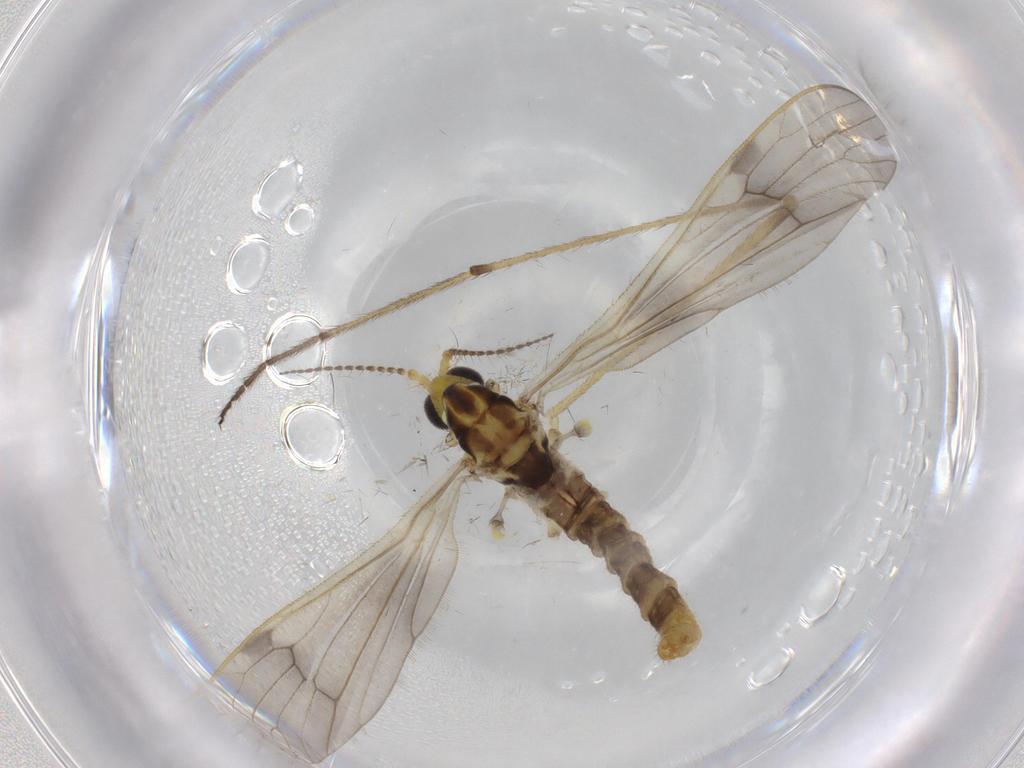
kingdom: Animalia
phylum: Arthropoda
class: Insecta
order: Diptera
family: Sphaeroceridae
